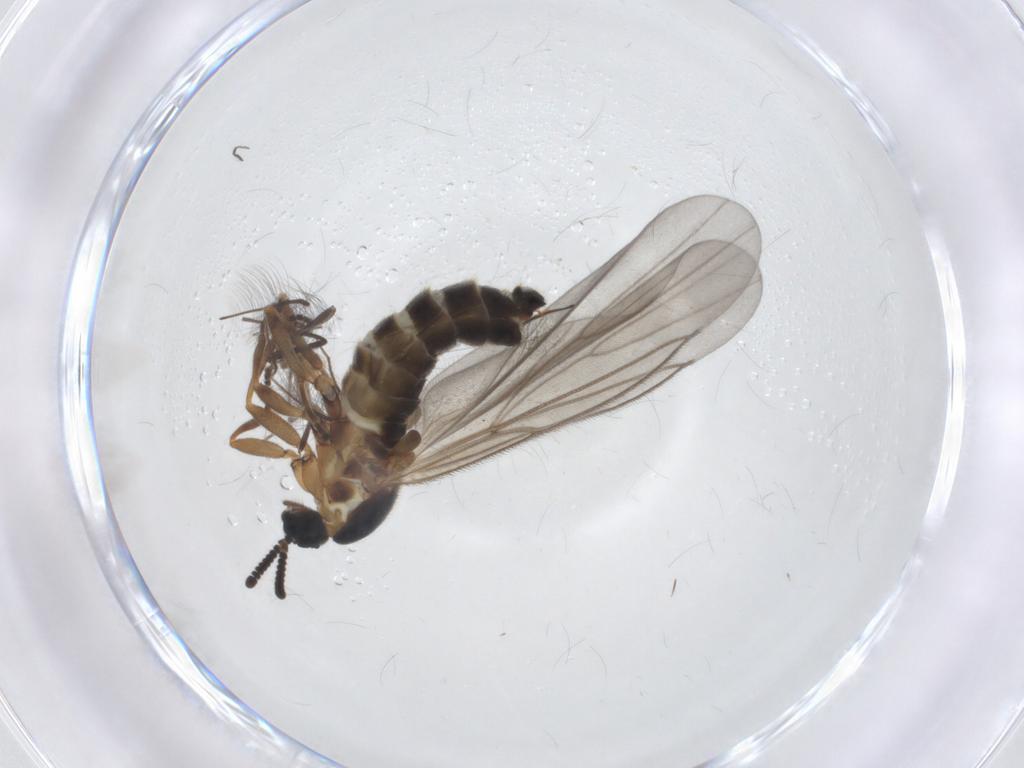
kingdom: Animalia
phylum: Arthropoda
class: Insecta
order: Diptera
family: Scatopsidae
